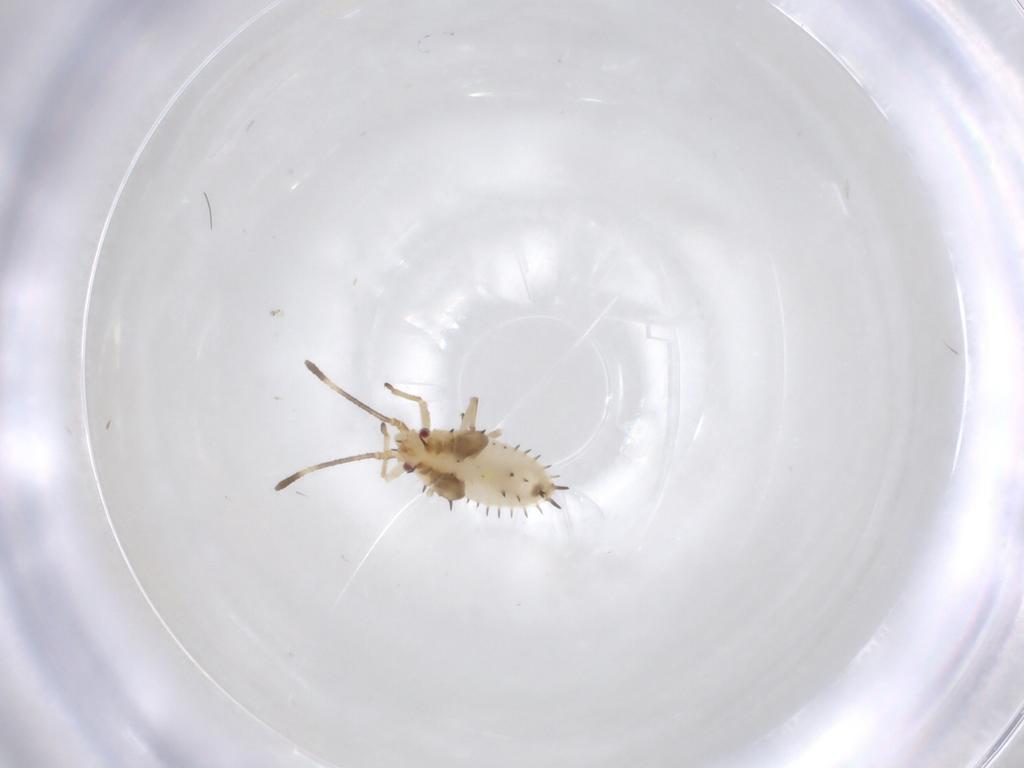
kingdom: Animalia
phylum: Arthropoda
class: Insecta
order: Hemiptera
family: Tingidae
